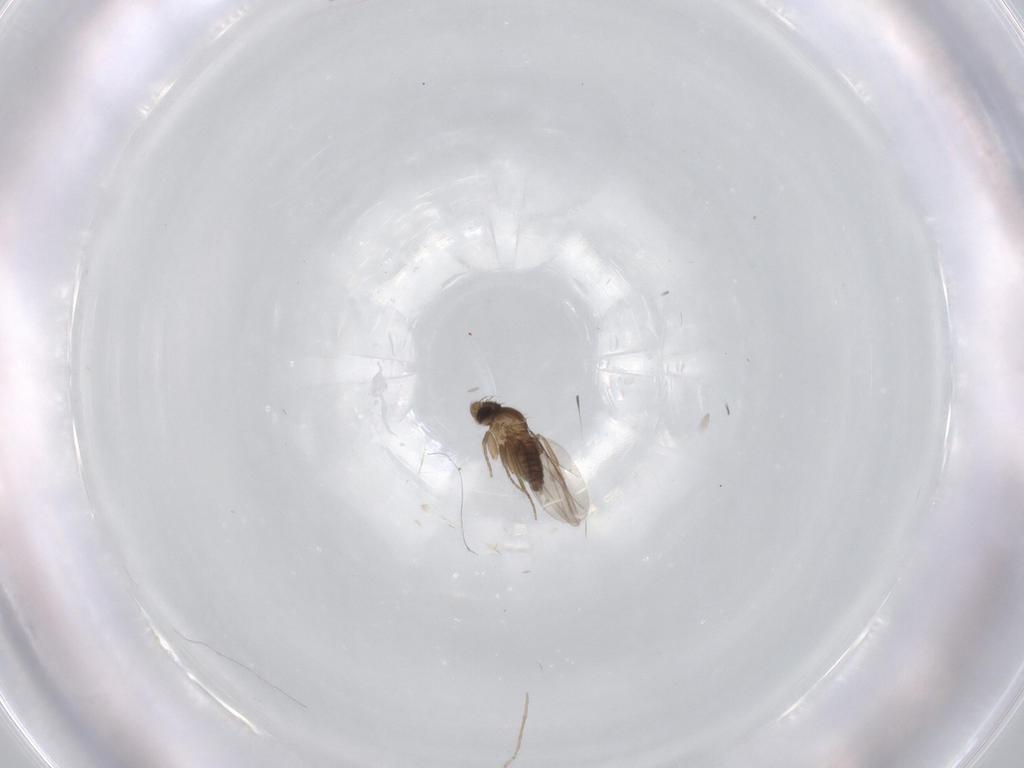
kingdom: Animalia
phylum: Arthropoda
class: Insecta
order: Diptera
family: Phoridae
